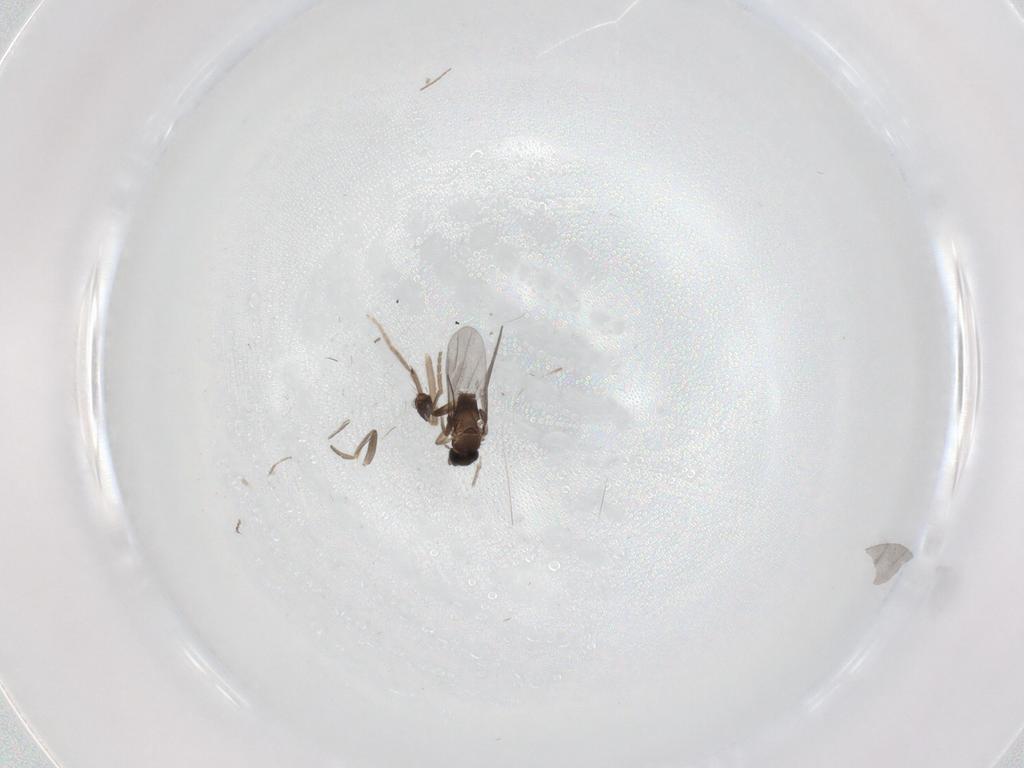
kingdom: Animalia
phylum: Arthropoda
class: Insecta
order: Diptera
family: Cecidomyiidae
